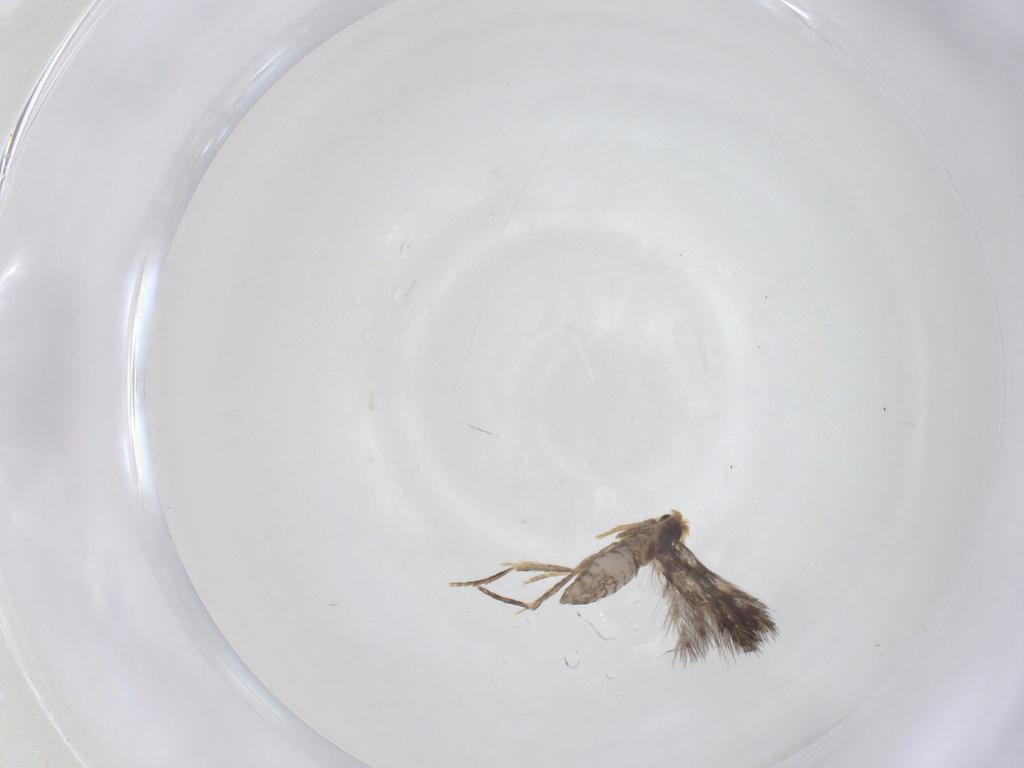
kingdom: Animalia
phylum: Arthropoda
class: Insecta
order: Lepidoptera
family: Nepticulidae
